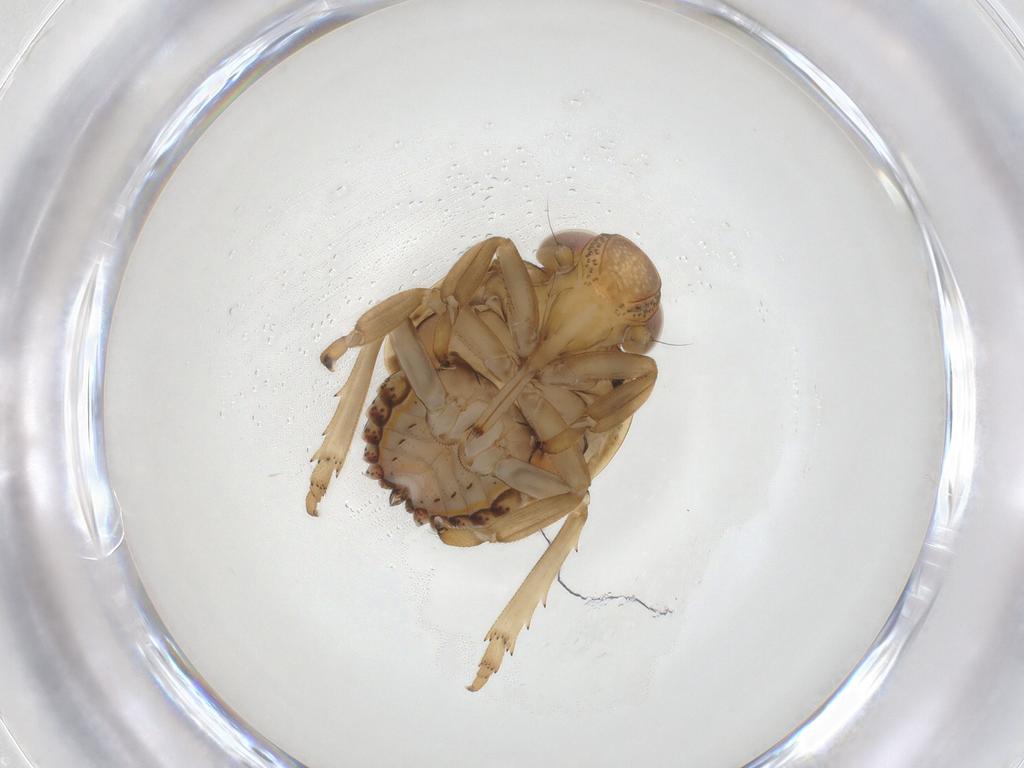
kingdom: Animalia
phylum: Arthropoda
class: Insecta
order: Hemiptera
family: Issidae
